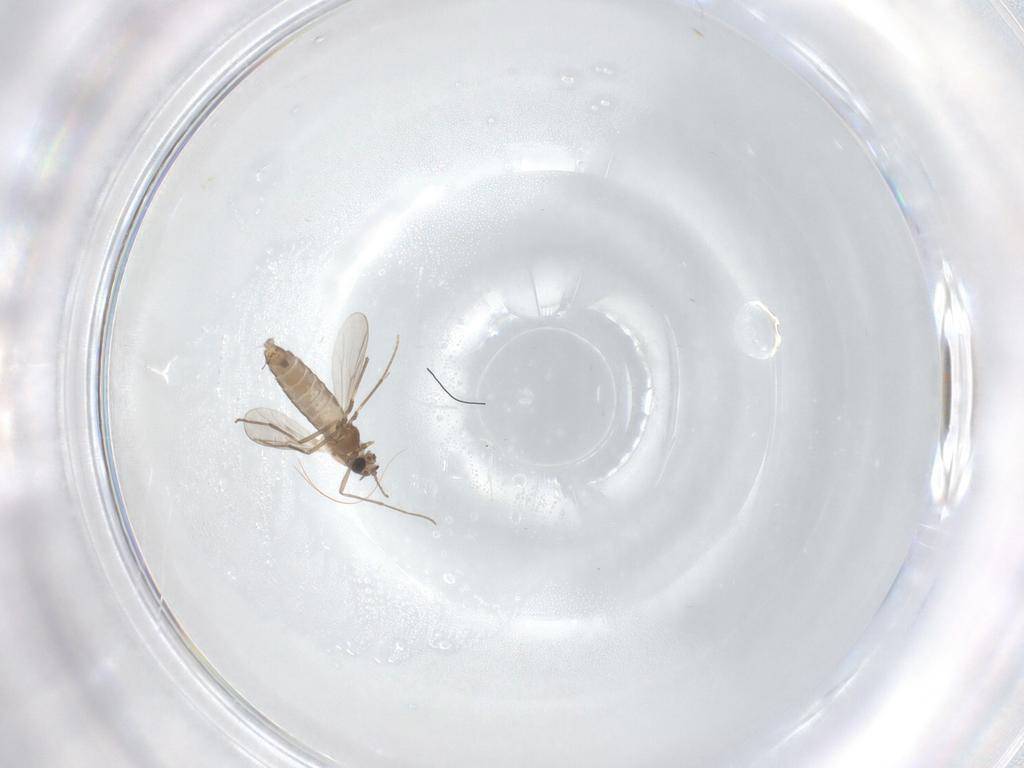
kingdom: Animalia
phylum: Arthropoda
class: Insecta
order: Diptera
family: Chironomidae
